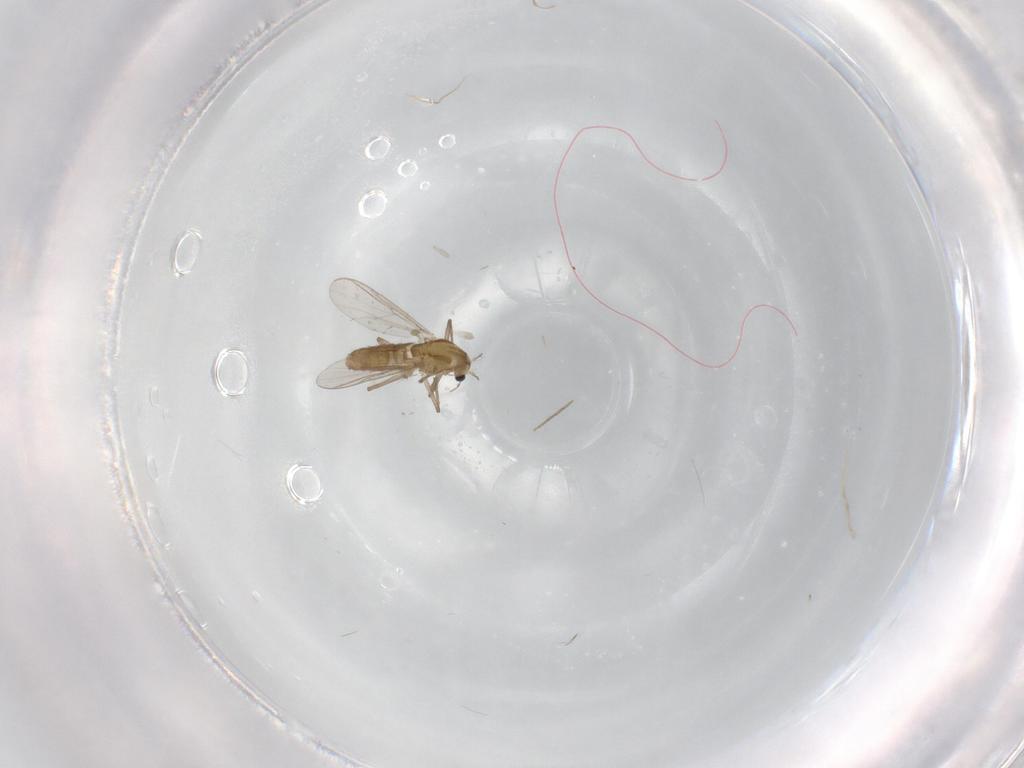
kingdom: Animalia
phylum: Arthropoda
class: Insecta
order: Diptera
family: Chironomidae
